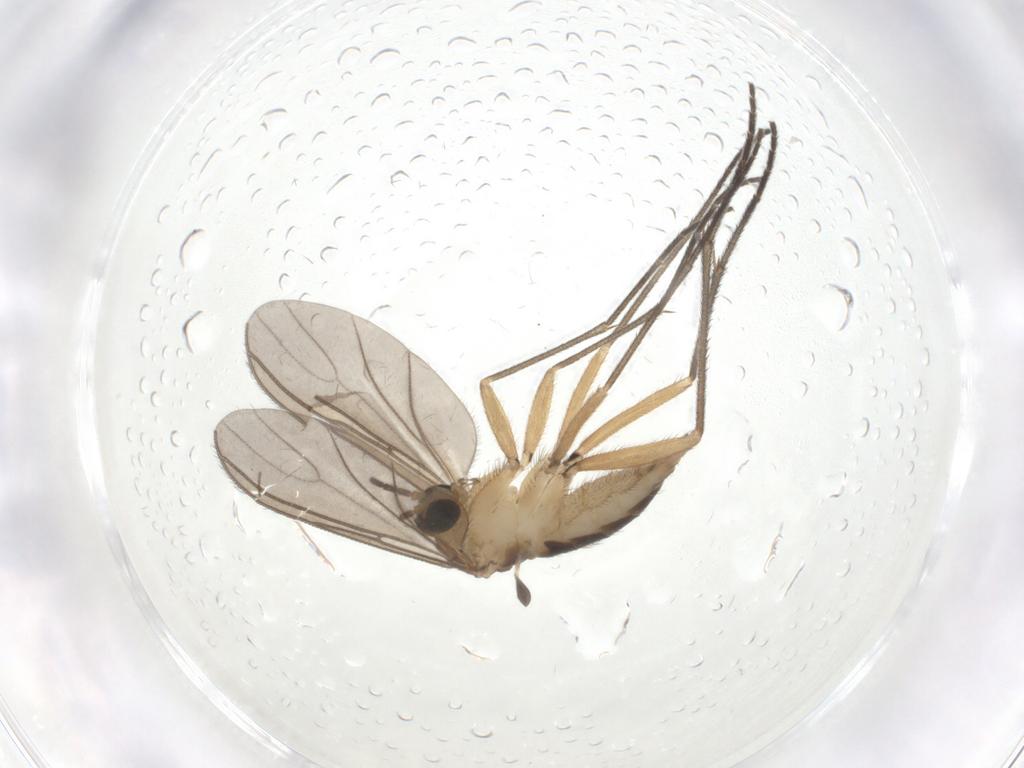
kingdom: Animalia
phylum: Arthropoda
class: Insecta
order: Diptera
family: Sciaridae
